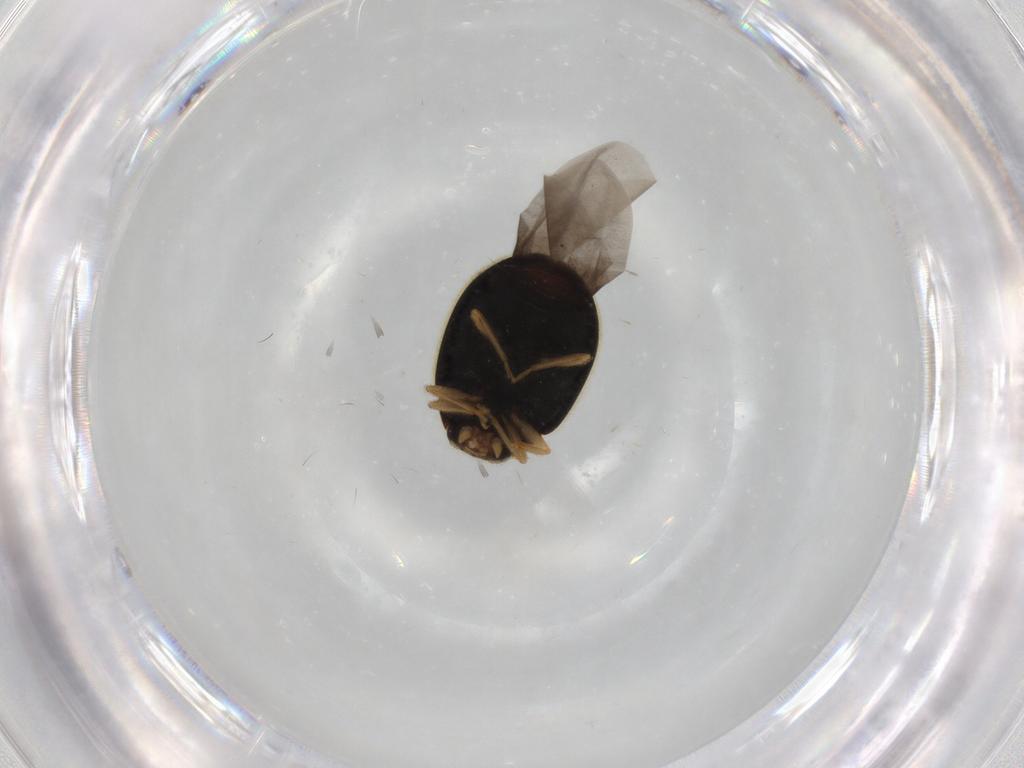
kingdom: Animalia
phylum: Arthropoda
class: Insecta
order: Coleoptera
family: Coccinellidae
